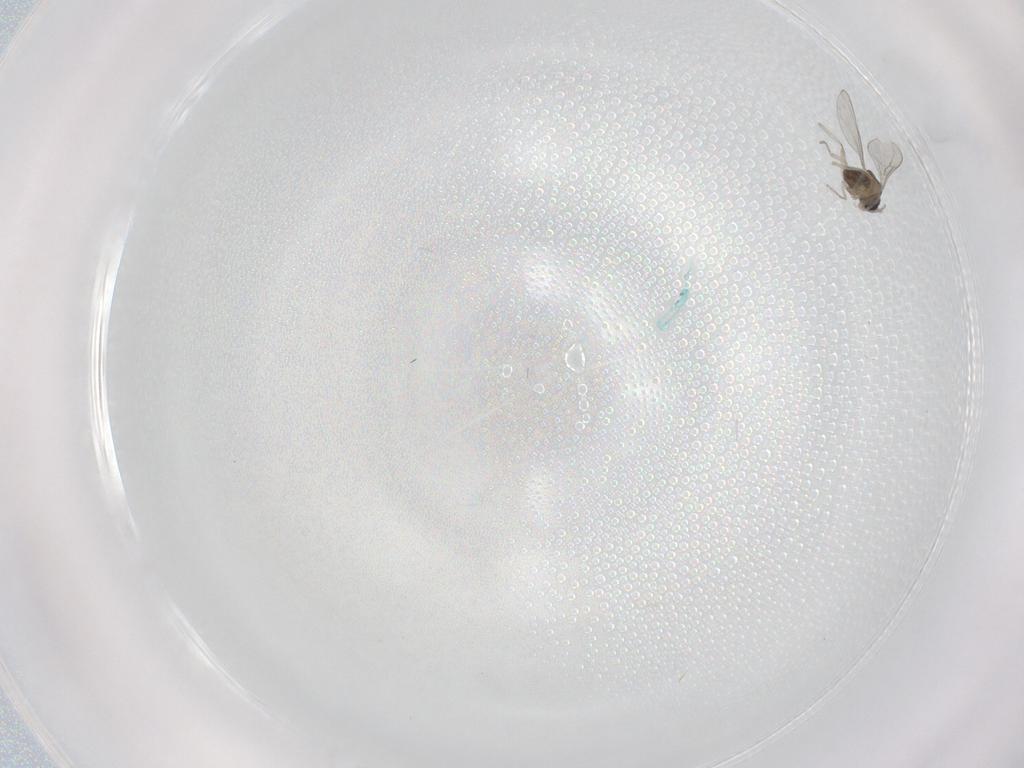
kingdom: Animalia
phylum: Arthropoda
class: Insecta
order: Diptera
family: Cecidomyiidae
